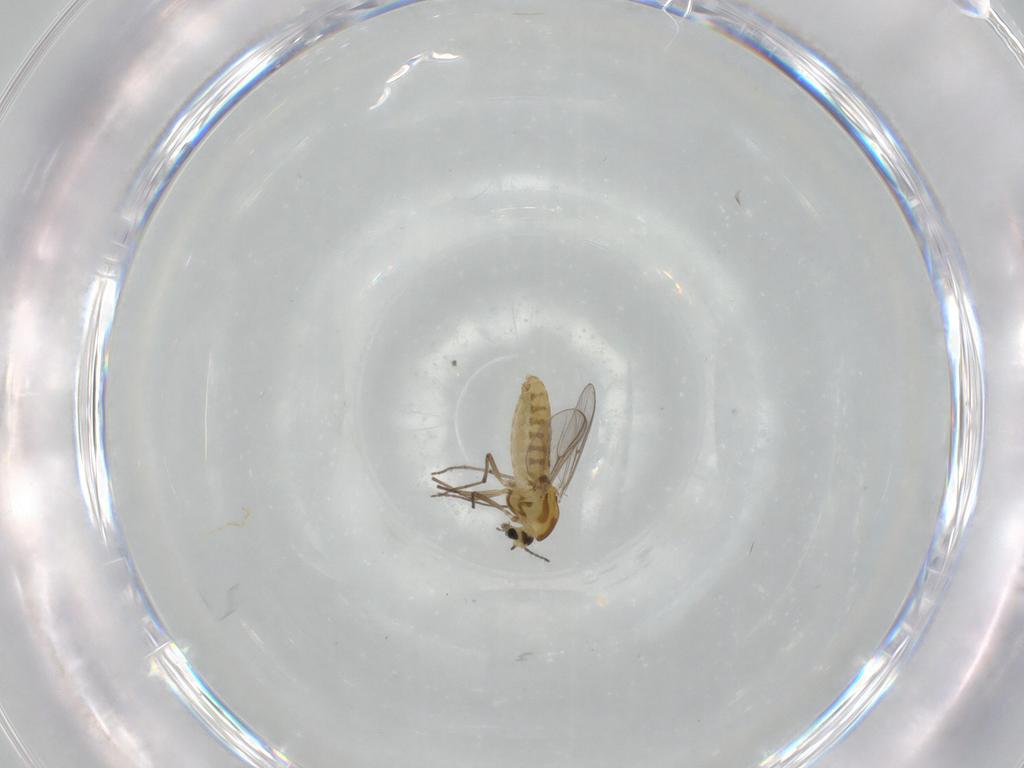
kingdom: Animalia
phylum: Arthropoda
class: Insecta
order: Diptera
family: Chironomidae
